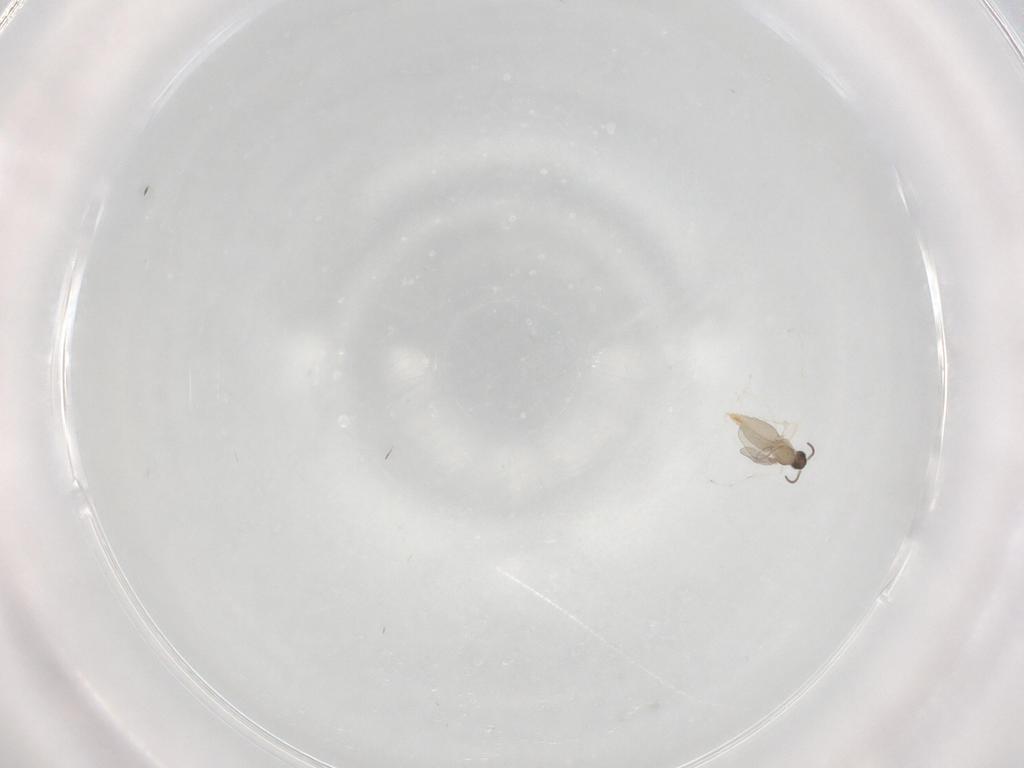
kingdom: Animalia
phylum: Arthropoda
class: Insecta
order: Diptera
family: Cecidomyiidae
